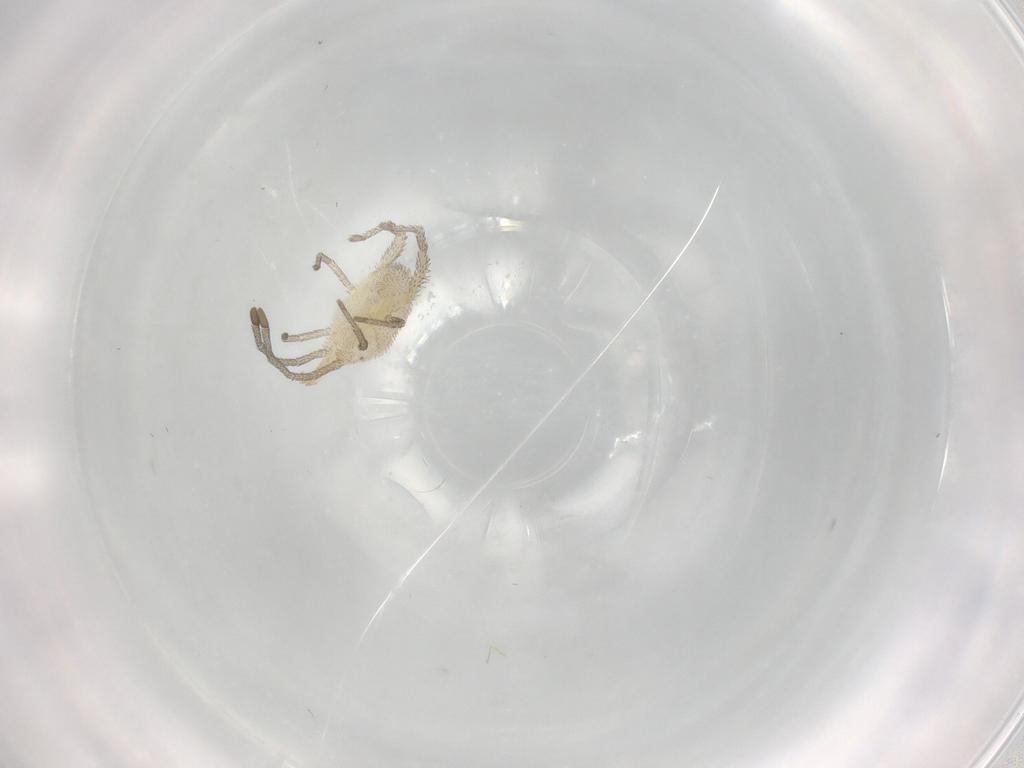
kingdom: Animalia
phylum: Arthropoda
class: Arachnida
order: Trombidiformes
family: Smarididae
